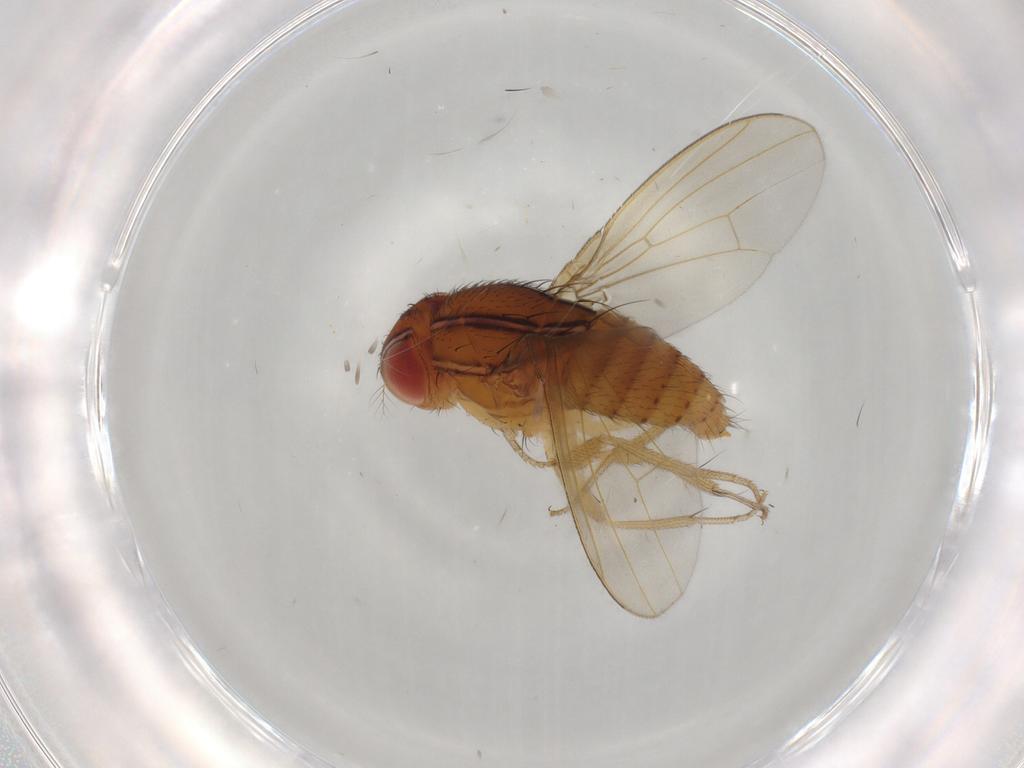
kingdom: Animalia
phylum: Arthropoda
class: Insecta
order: Diptera
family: Drosophilidae
